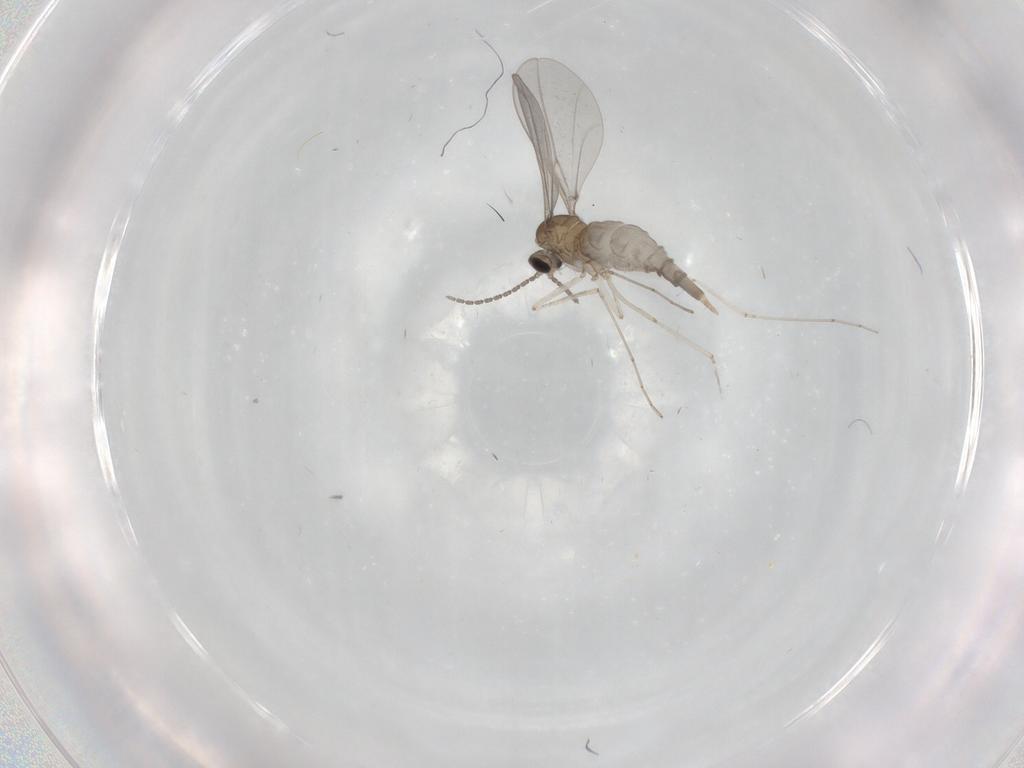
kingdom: Animalia
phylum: Arthropoda
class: Insecta
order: Diptera
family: Cecidomyiidae
